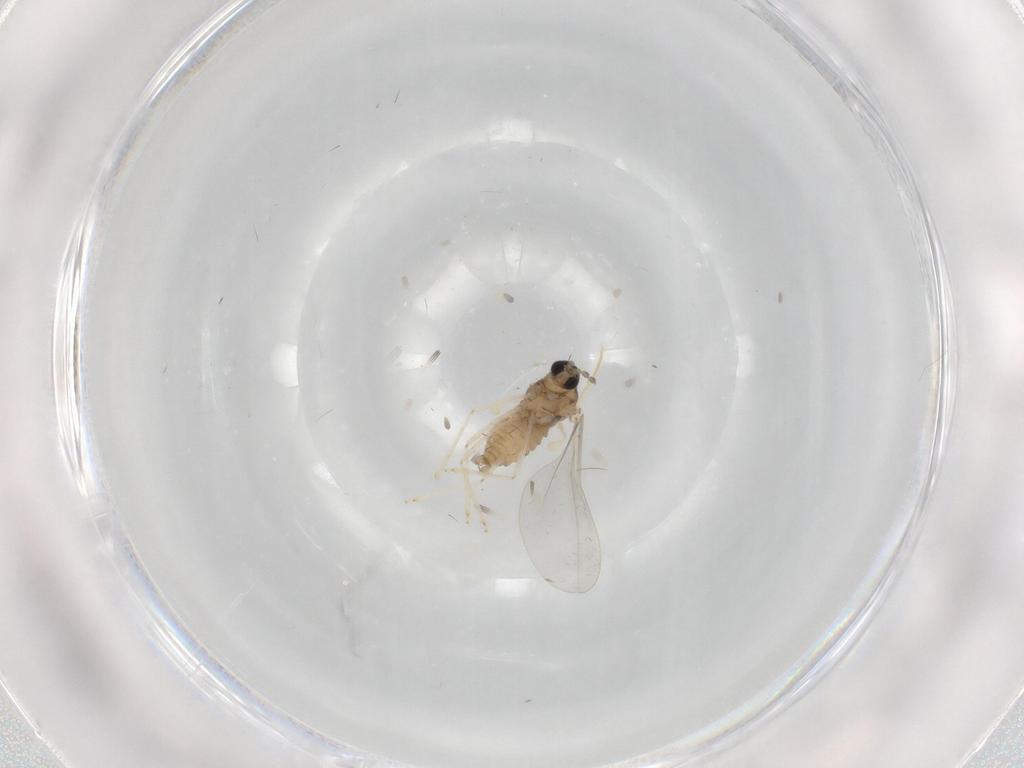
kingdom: Animalia
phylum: Arthropoda
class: Insecta
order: Diptera
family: Cecidomyiidae
